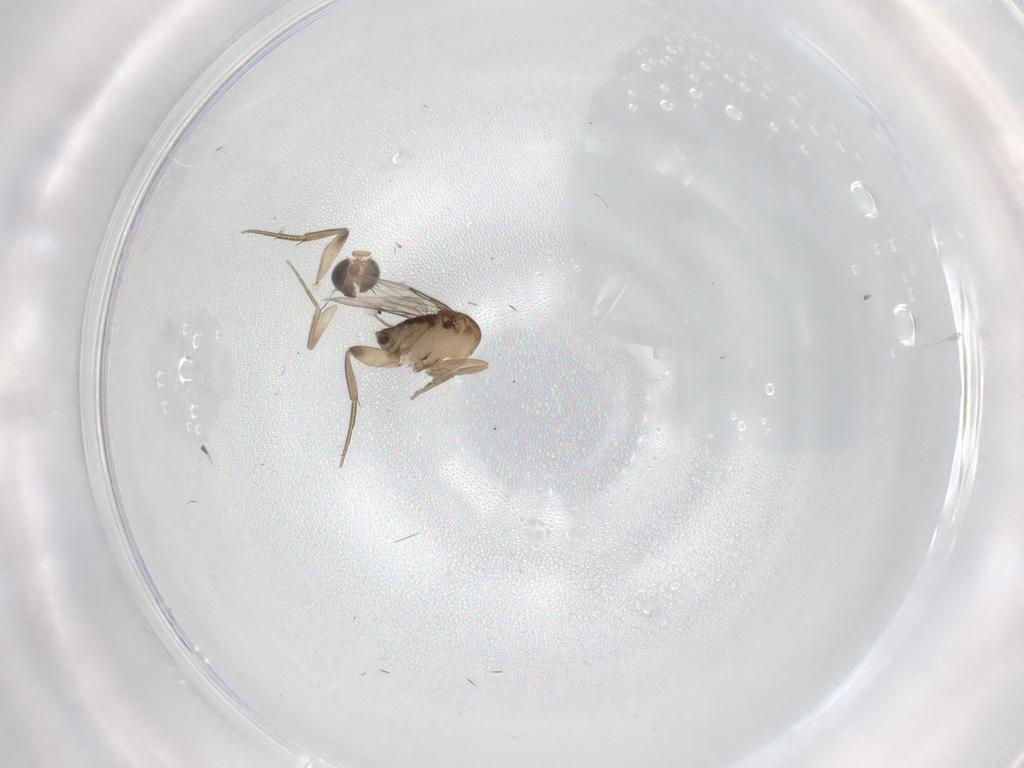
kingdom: Animalia
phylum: Arthropoda
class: Insecta
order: Diptera
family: Phoridae
